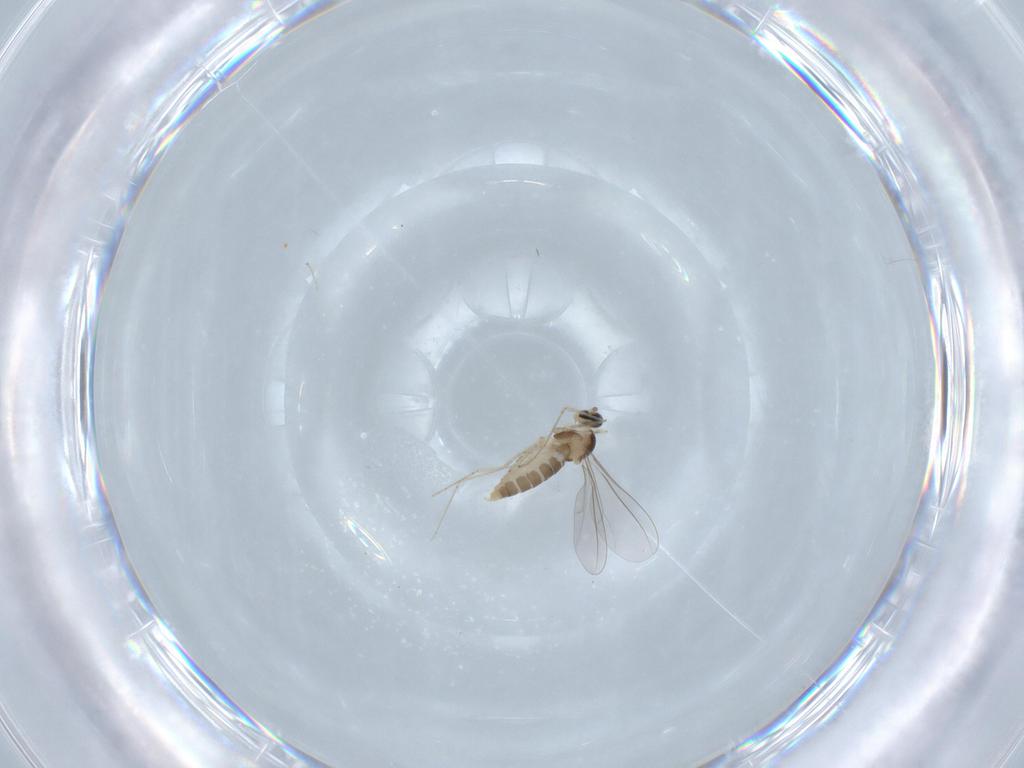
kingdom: Animalia
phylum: Arthropoda
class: Insecta
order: Diptera
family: Cecidomyiidae
